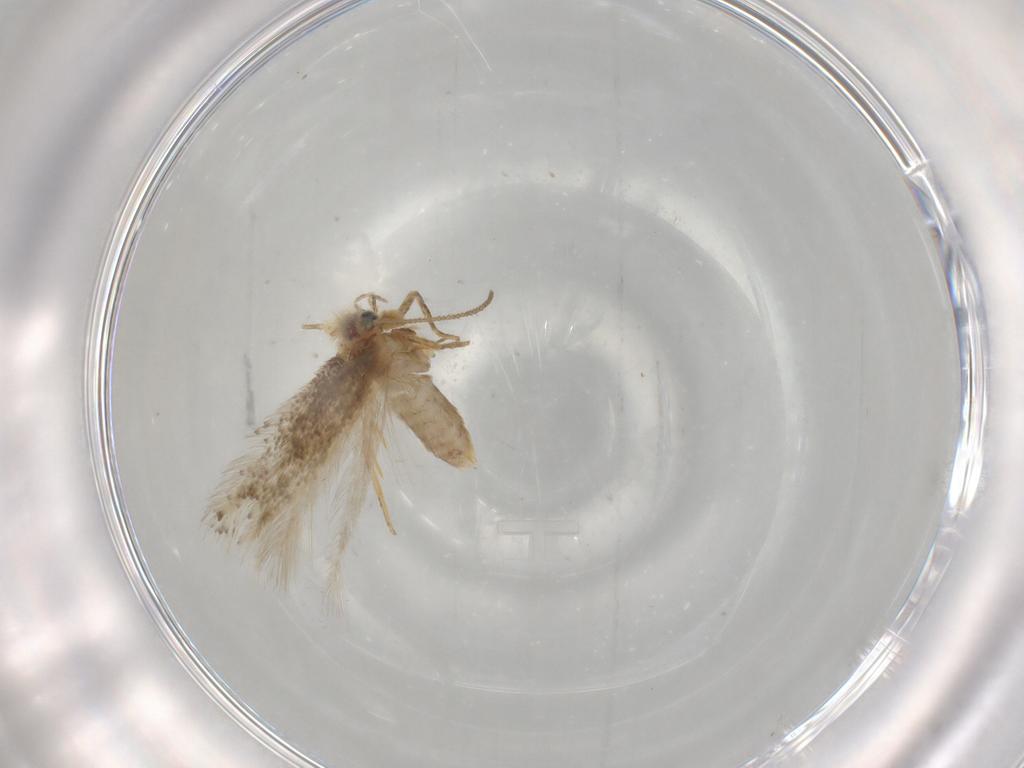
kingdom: Animalia
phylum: Arthropoda
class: Insecta
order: Lepidoptera
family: Nepticulidae
